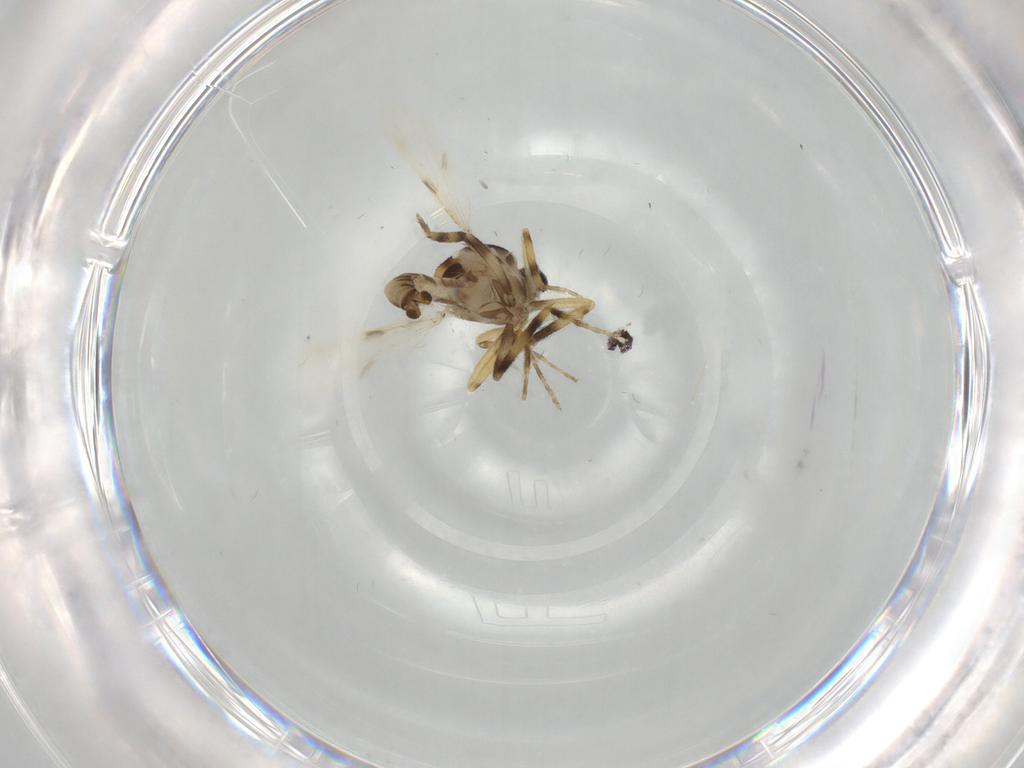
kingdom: Animalia
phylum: Arthropoda
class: Insecta
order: Diptera
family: Ceratopogonidae
